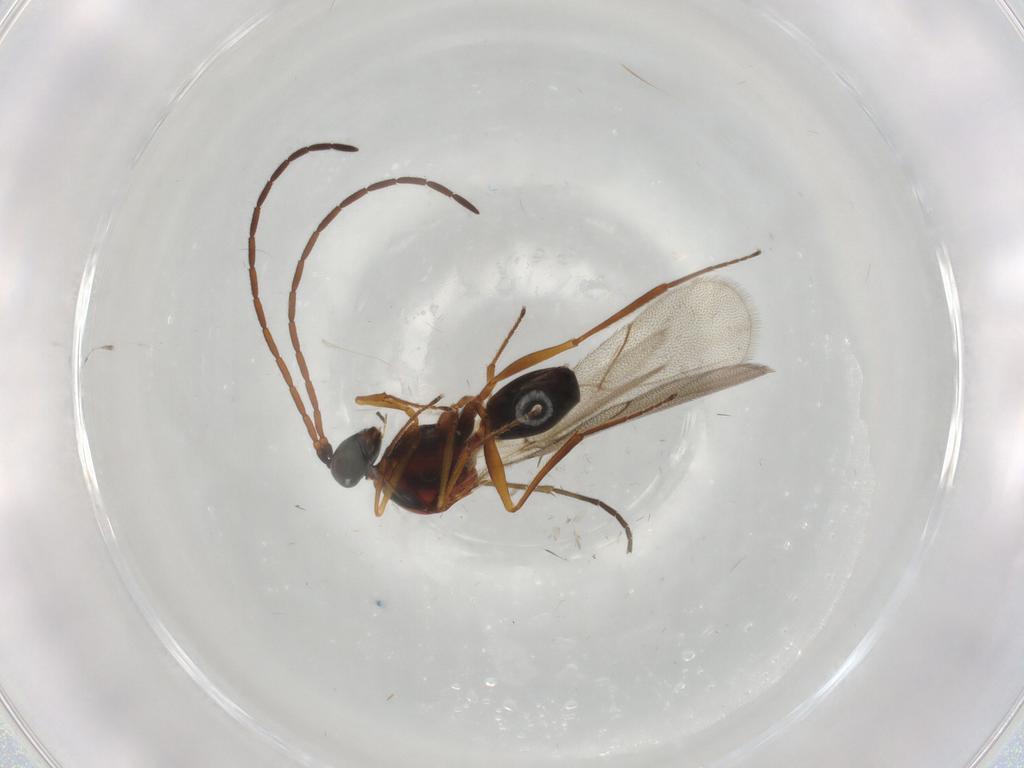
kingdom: Animalia
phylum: Arthropoda
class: Insecta
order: Hymenoptera
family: Figitidae
